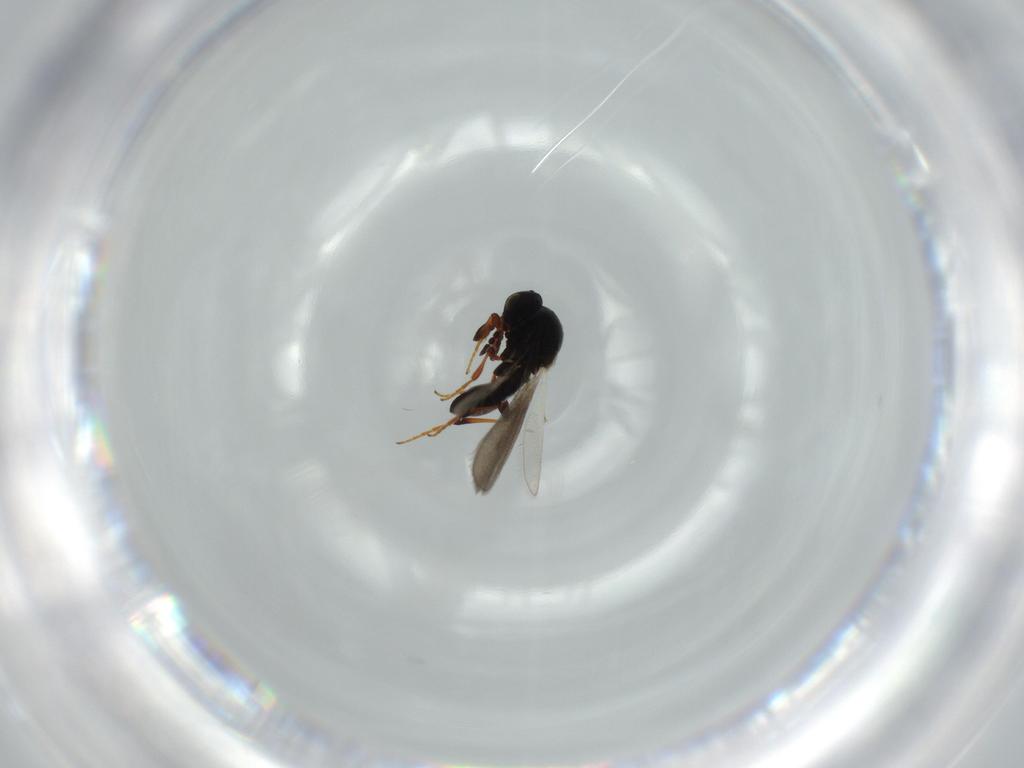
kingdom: Animalia
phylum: Arthropoda
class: Insecta
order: Hymenoptera
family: Platygastridae
